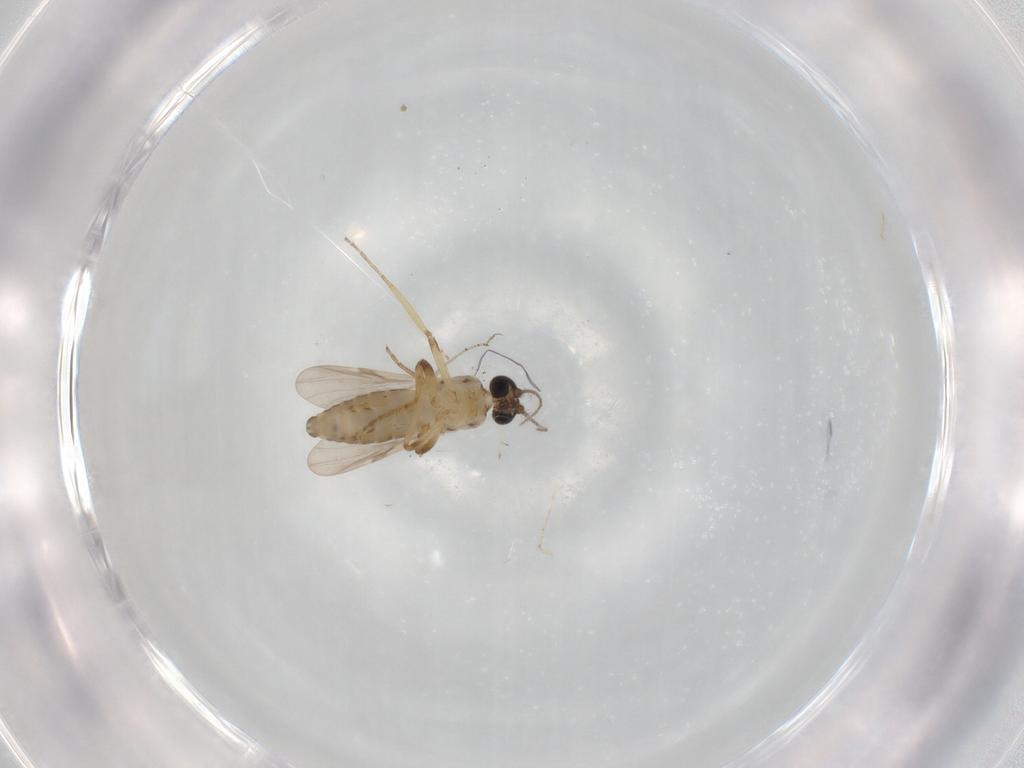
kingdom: Animalia
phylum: Arthropoda
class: Insecta
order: Diptera
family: Ceratopogonidae
